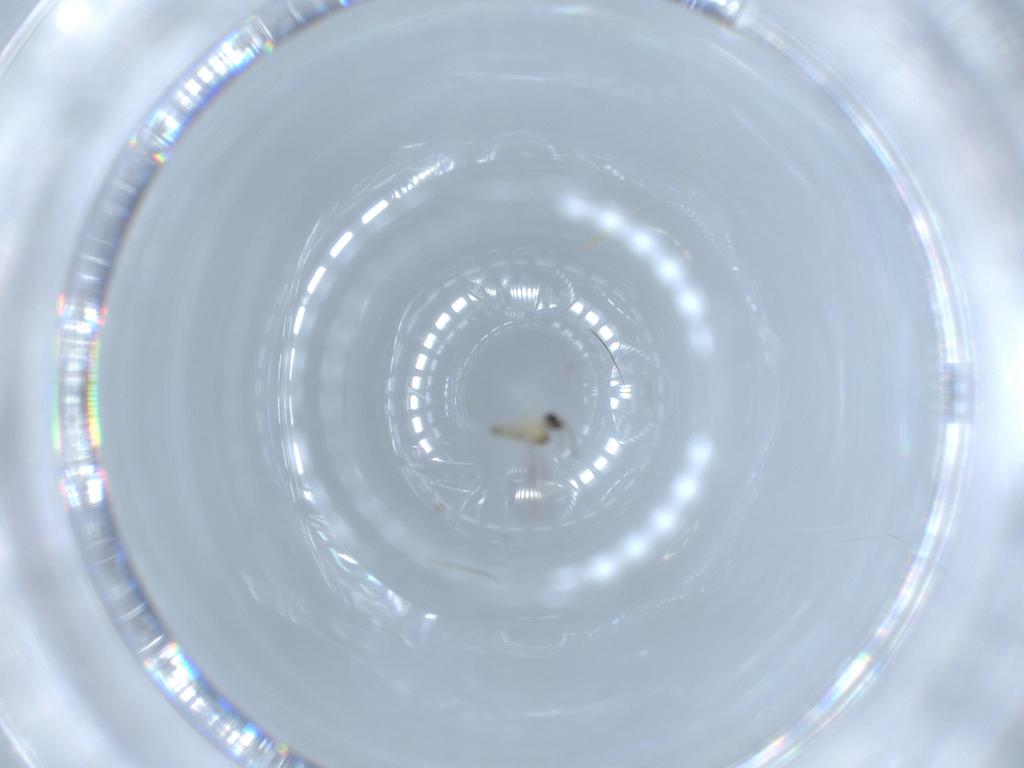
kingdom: Animalia
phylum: Arthropoda
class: Insecta
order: Diptera
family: Cecidomyiidae
